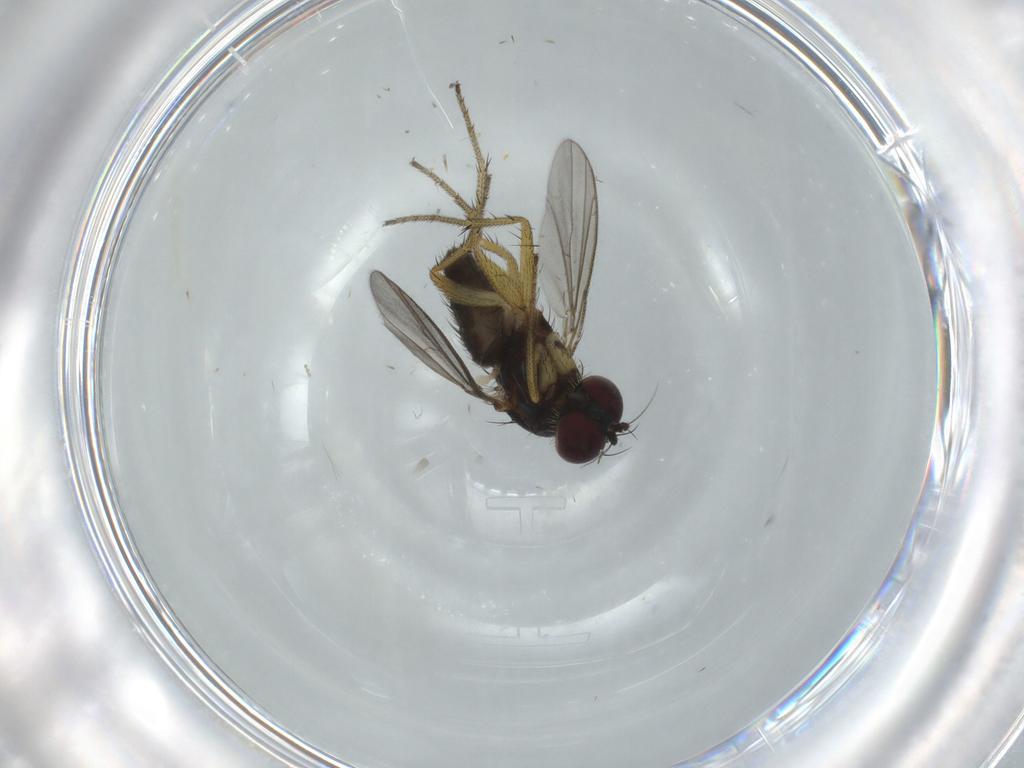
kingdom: Animalia
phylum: Arthropoda
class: Insecta
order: Diptera
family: Dolichopodidae
